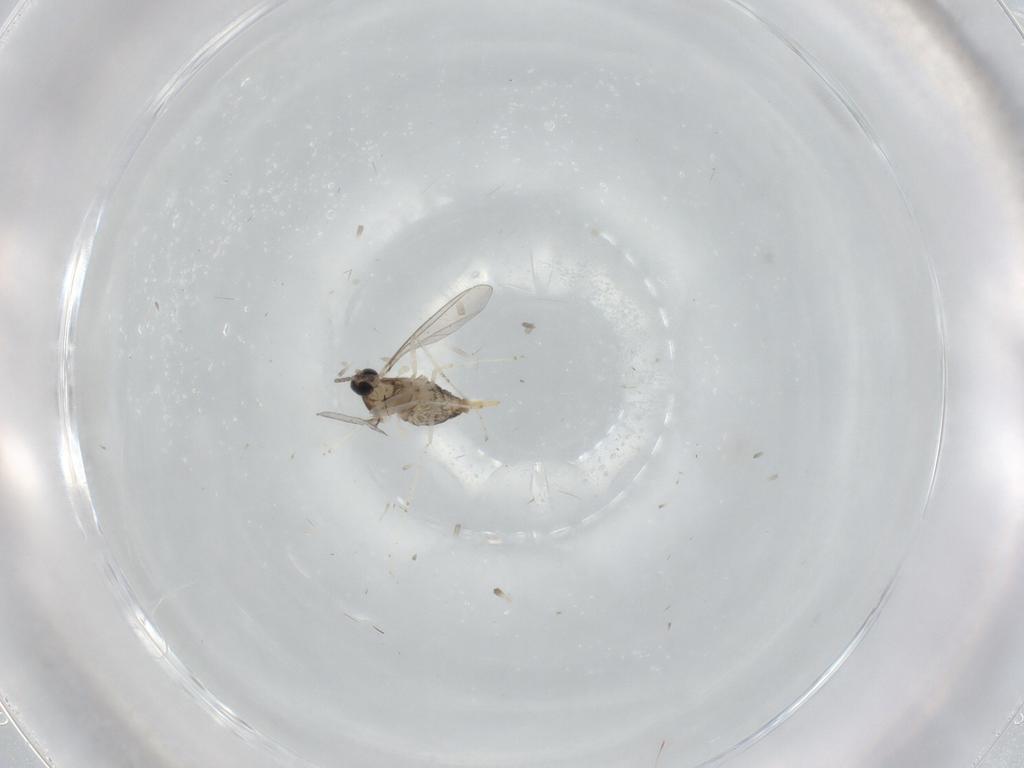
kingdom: Animalia
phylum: Arthropoda
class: Insecta
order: Diptera
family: Cecidomyiidae
